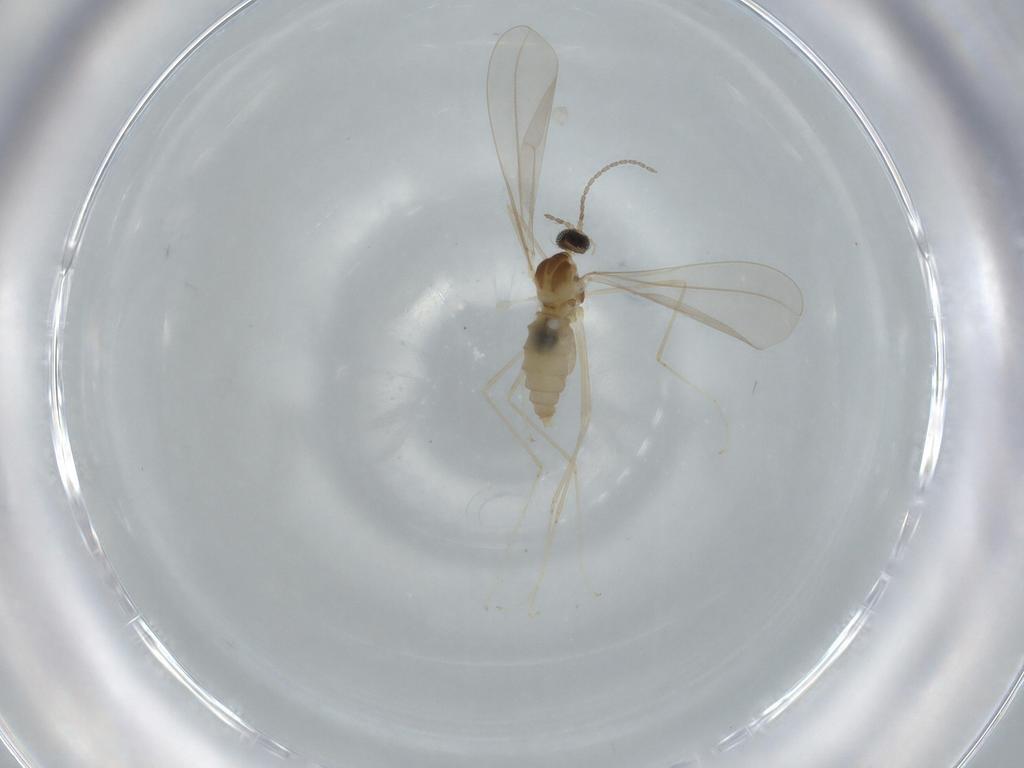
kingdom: Animalia
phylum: Arthropoda
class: Insecta
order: Diptera
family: Cecidomyiidae
